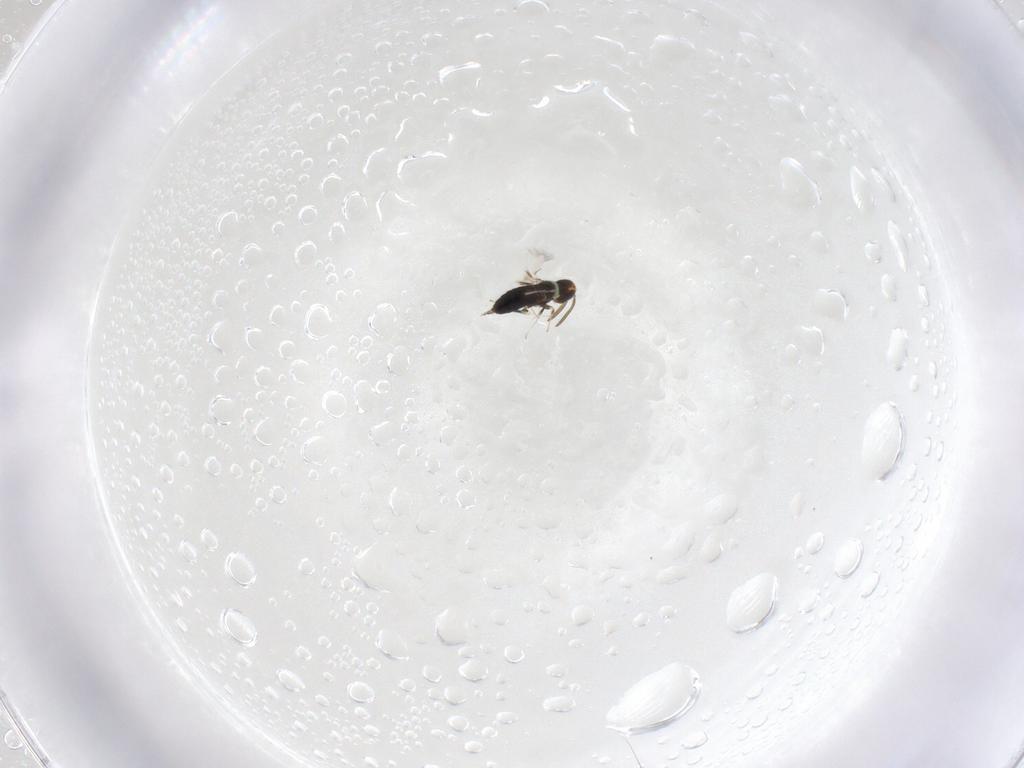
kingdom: Animalia
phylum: Arthropoda
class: Insecta
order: Hymenoptera
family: Signiphoridae
